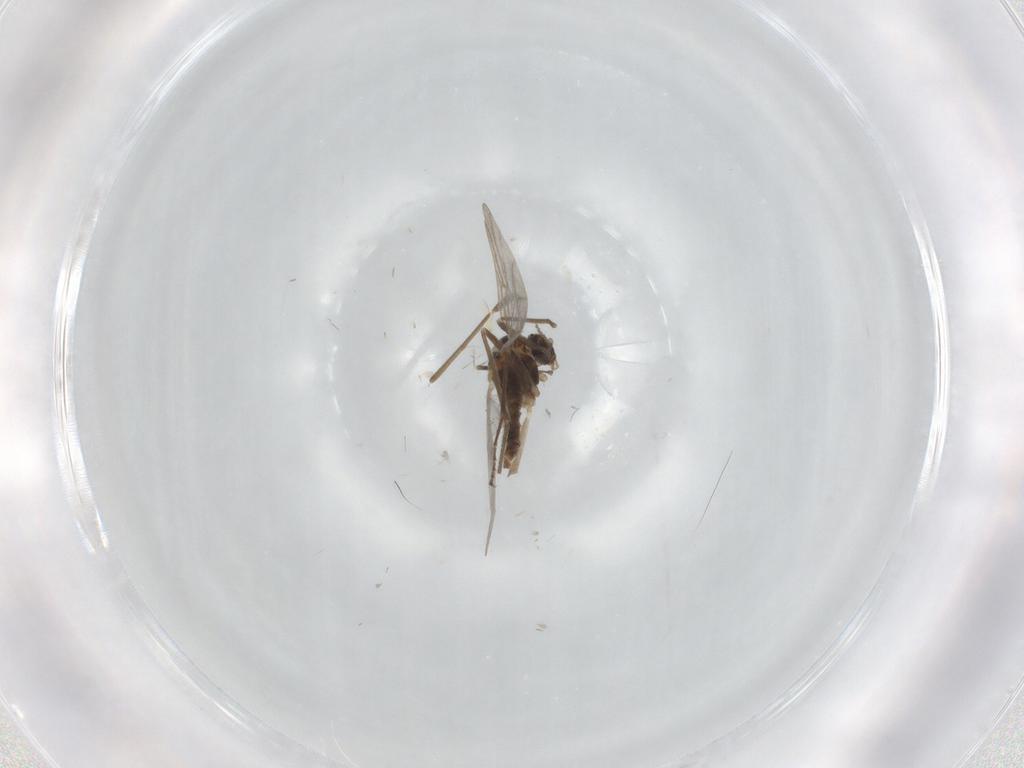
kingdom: Animalia
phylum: Arthropoda
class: Insecta
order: Diptera
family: Cecidomyiidae
